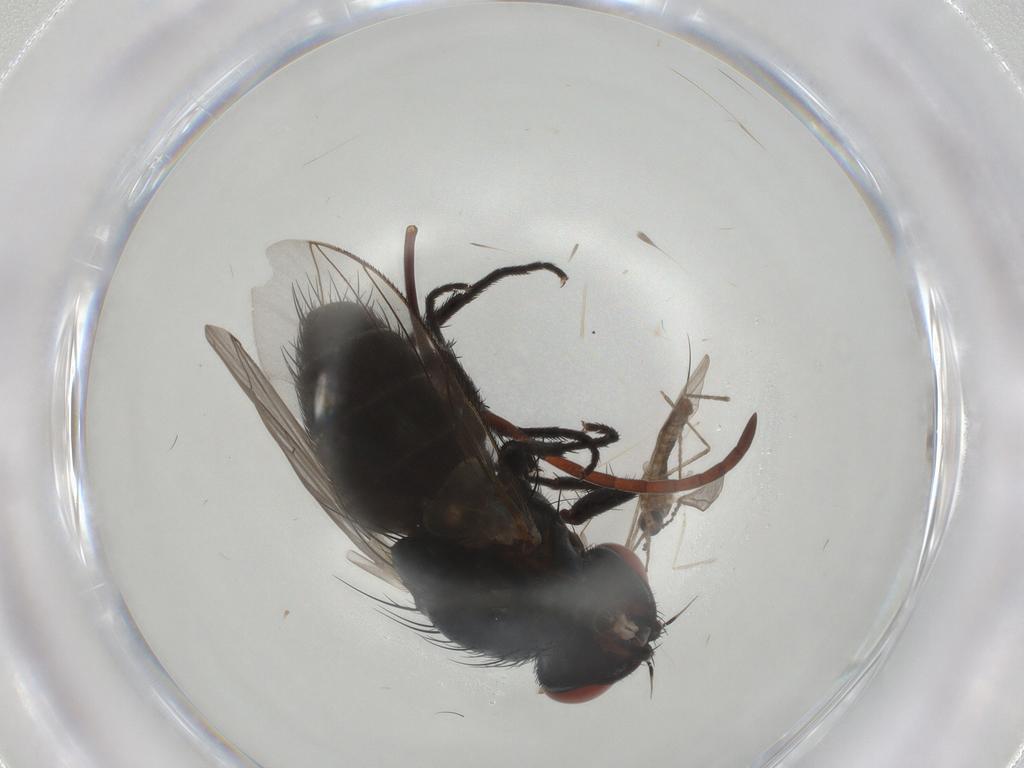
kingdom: Animalia
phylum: Arthropoda
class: Insecta
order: Diptera
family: Sarcophagidae
